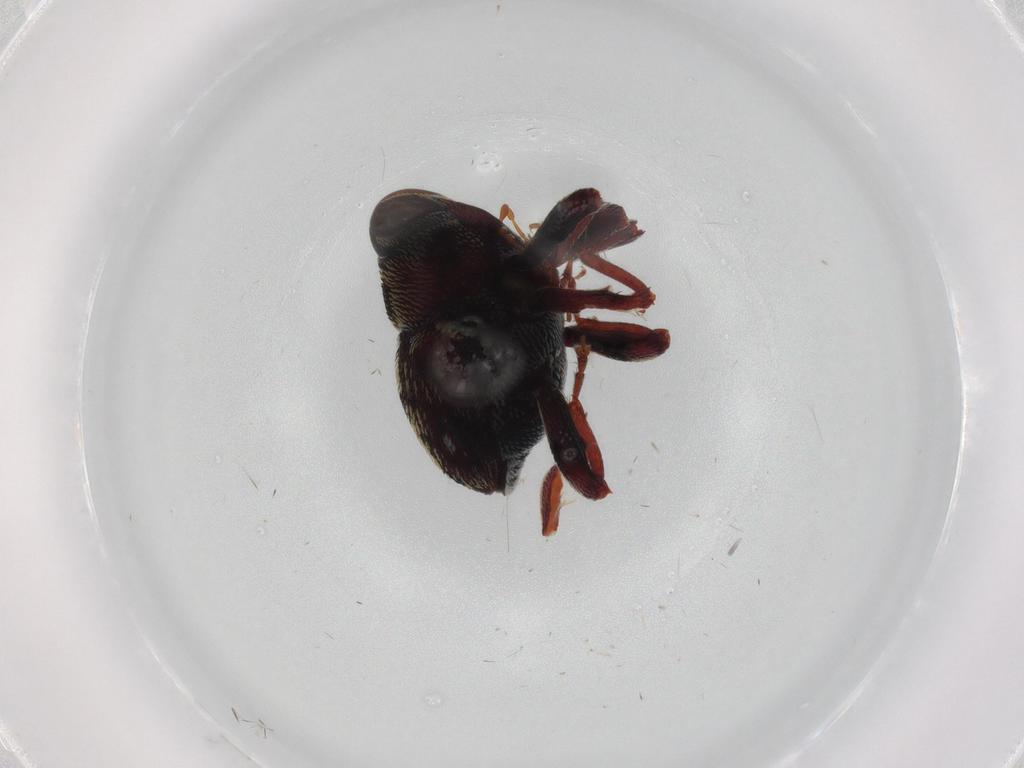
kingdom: Animalia
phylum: Arthropoda
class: Insecta
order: Coleoptera
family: Curculionidae
